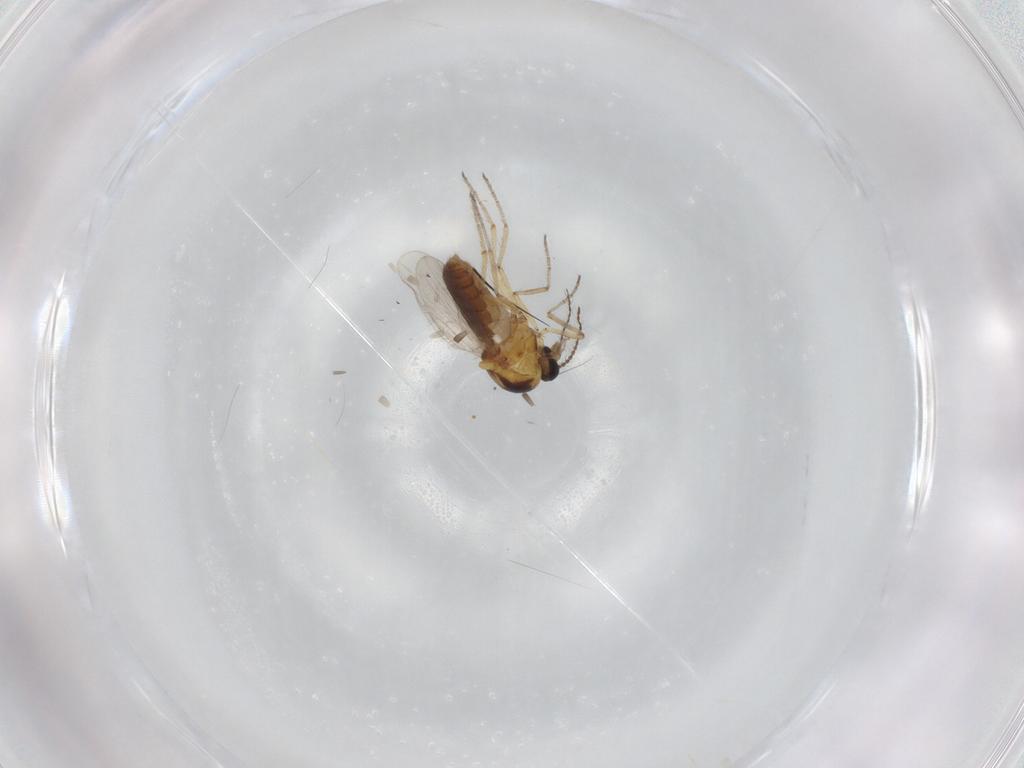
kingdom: Animalia
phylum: Arthropoda
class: Insecta
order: Diptera
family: Ceratopogonidae
